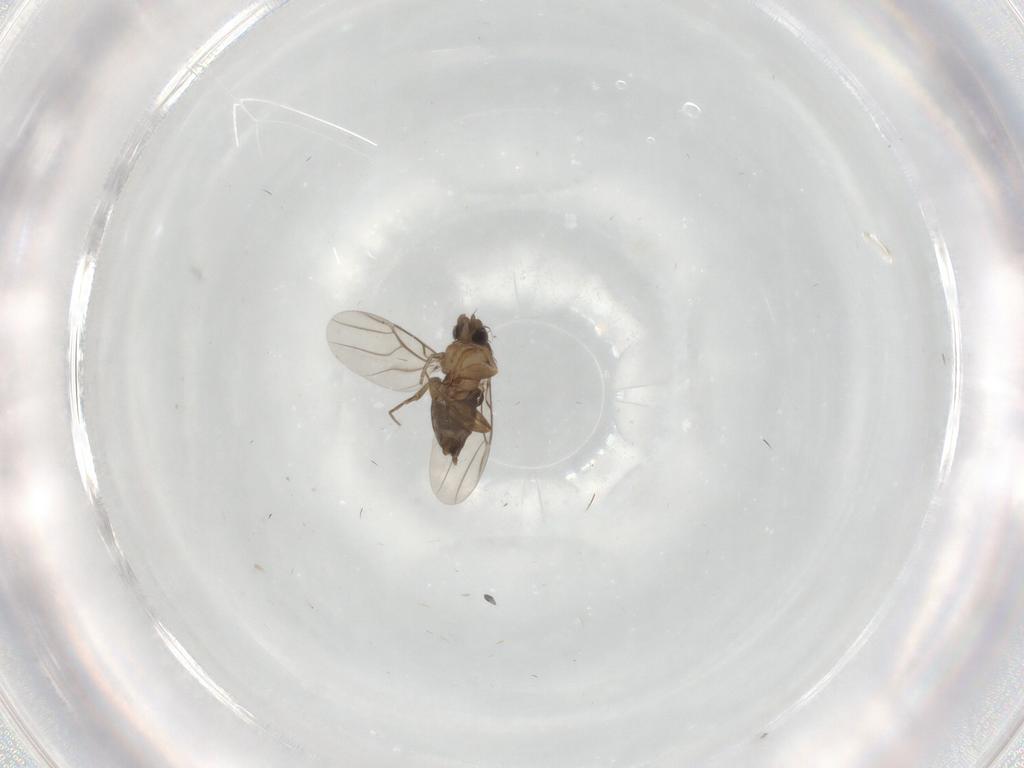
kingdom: Animalia
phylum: Arthropoda
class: Insecta
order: Diptera
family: Phoridae
